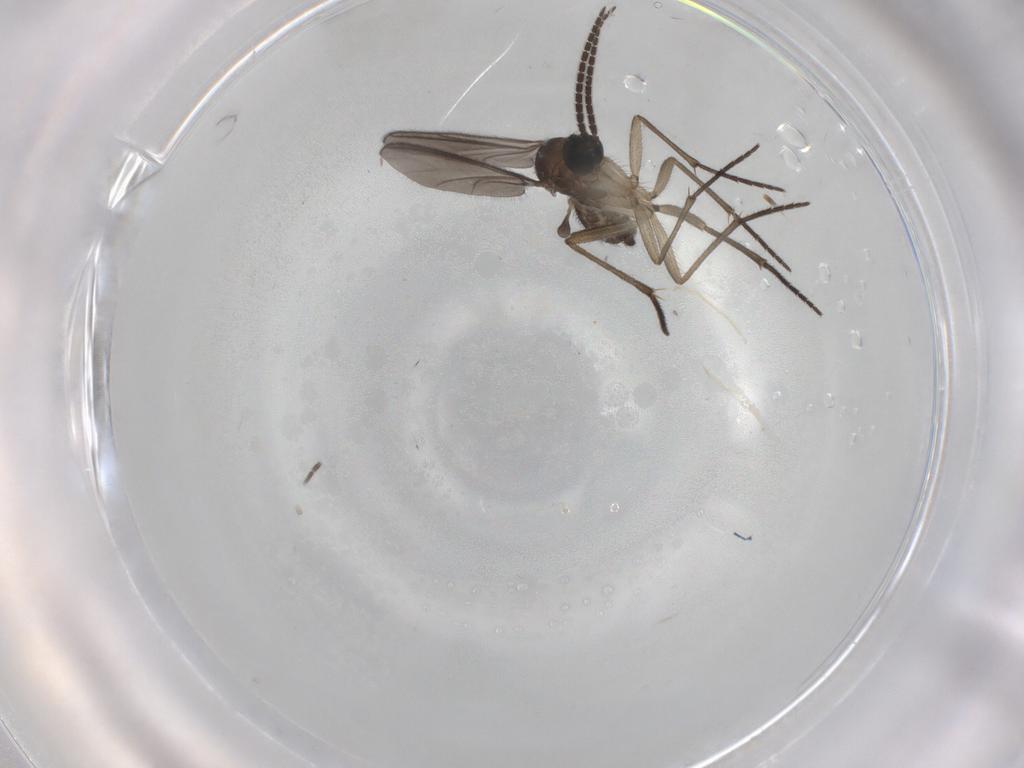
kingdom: Animalia
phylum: Arthropoda
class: Insecta
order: Diptera
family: Sciaridae
